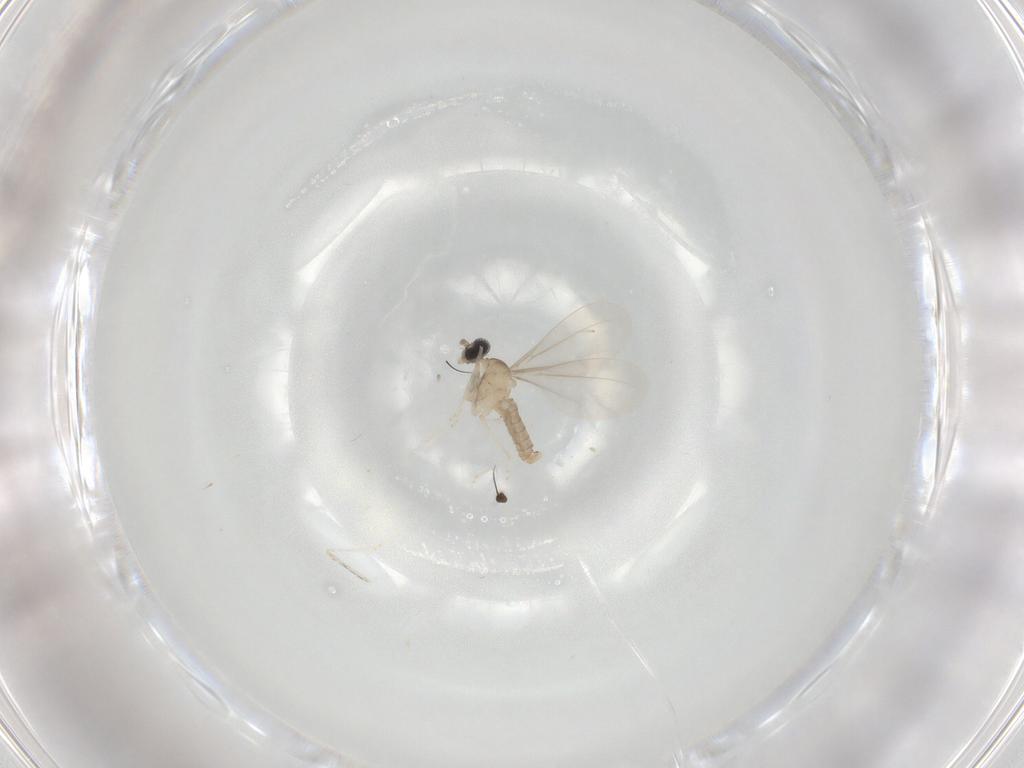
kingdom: Animalia
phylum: Arthropoda
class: Insecta
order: Diptera
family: Cecidomyiidae
